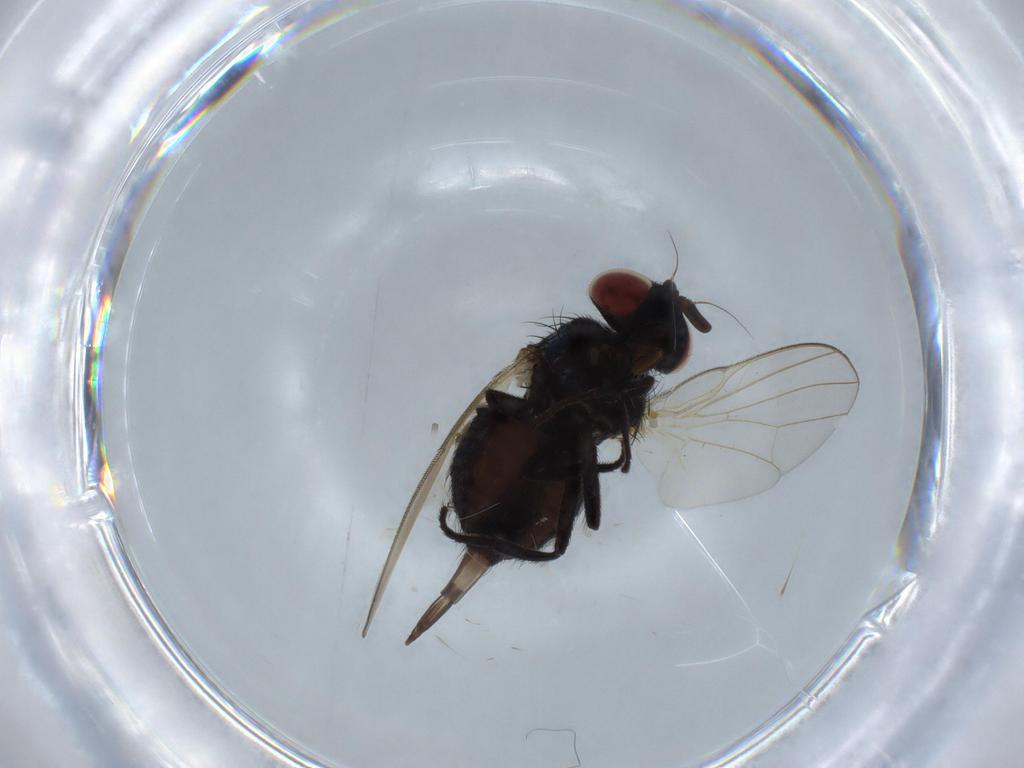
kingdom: Animalia
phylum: Arthropoda
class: Insecta
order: Diptera
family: Lonchaeidae
